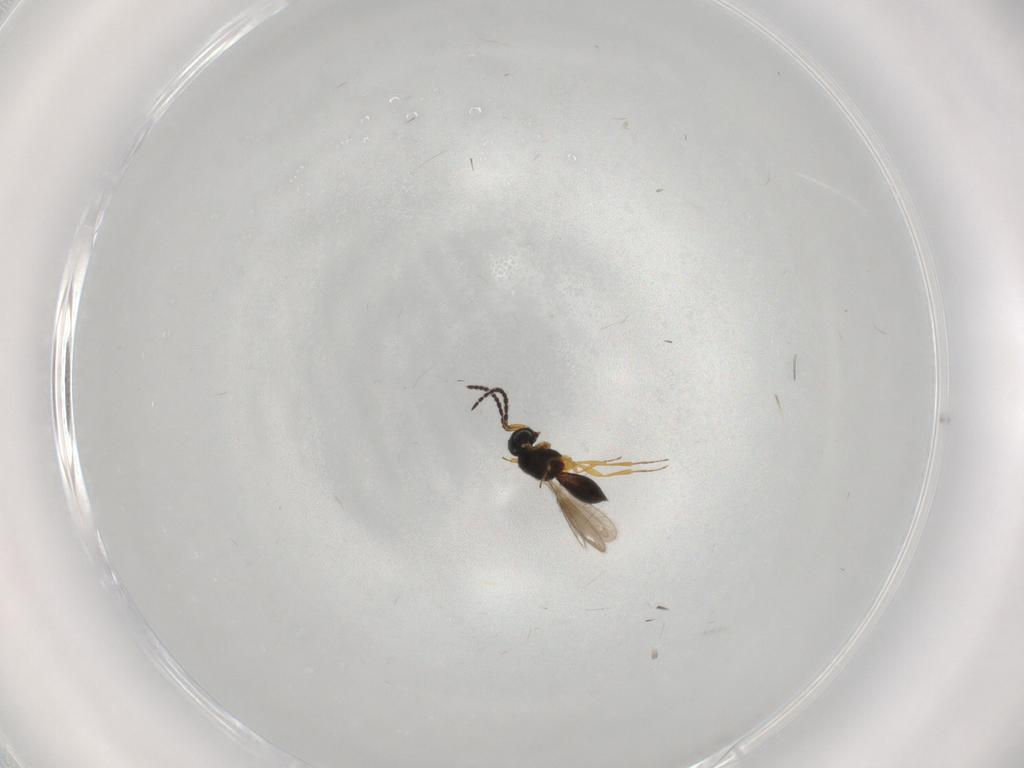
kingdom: Animalia
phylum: Arthropoda
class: Insecta
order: Hymenoptera
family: Scelionidae
